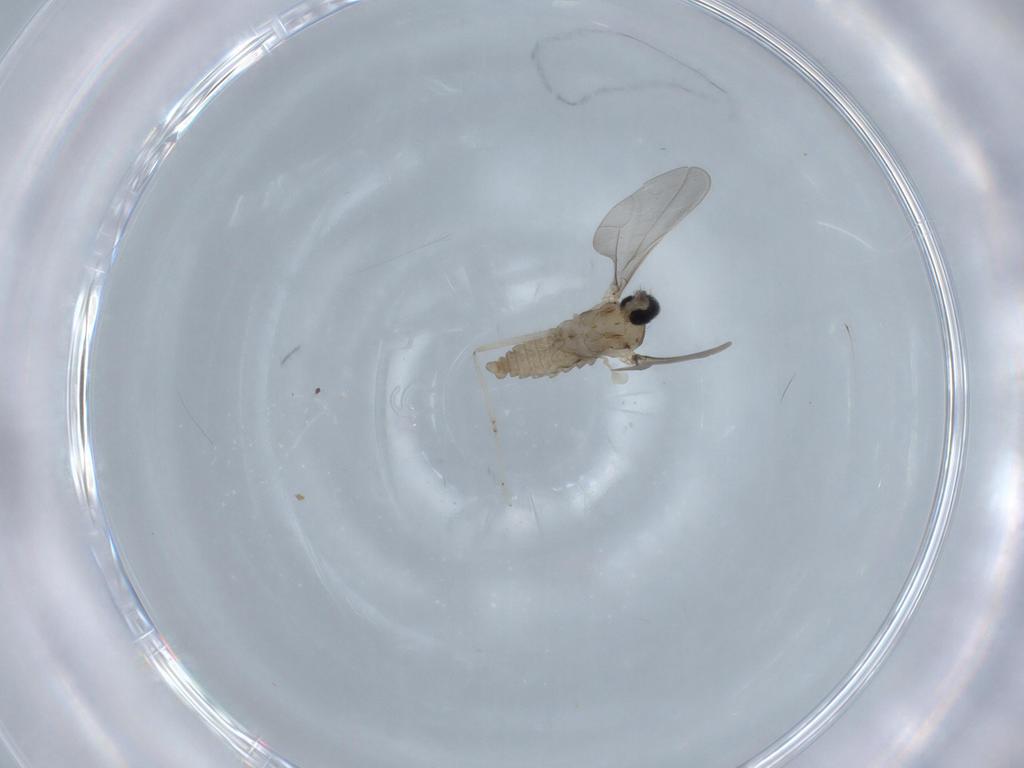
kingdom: Animalia
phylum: Arthropoda
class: Insecta
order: Diptera
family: Cecidomyiidae
